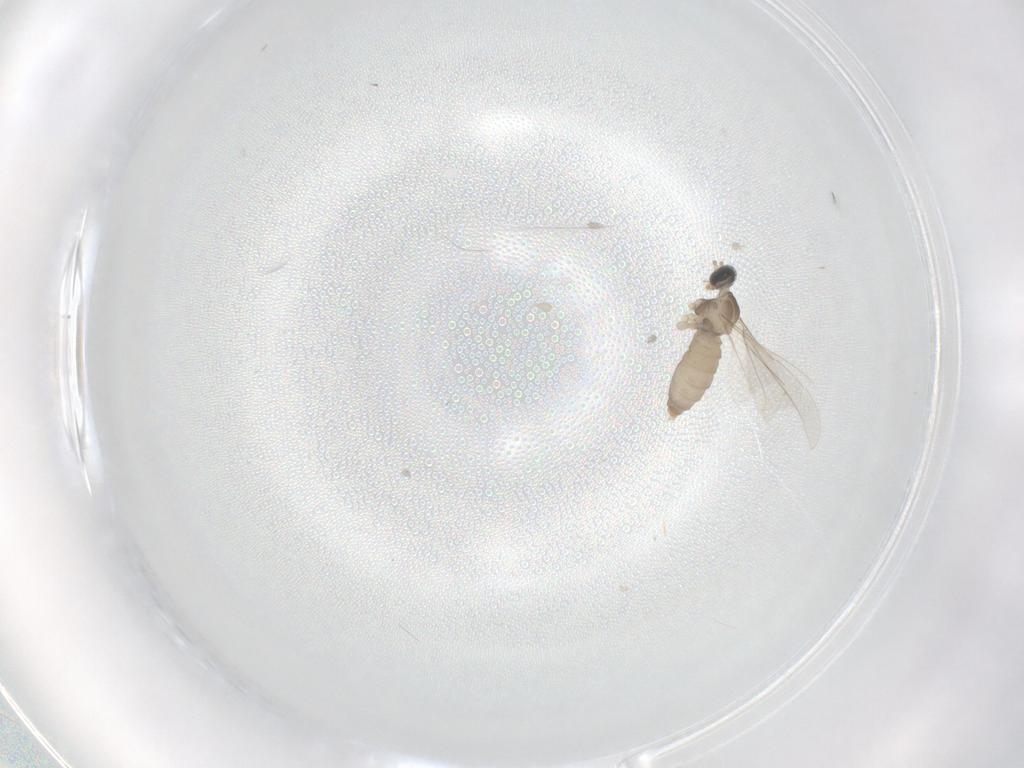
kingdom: Animalia
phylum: Arthropoda
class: Insecta
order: Diptera
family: Cecidomyiidae
